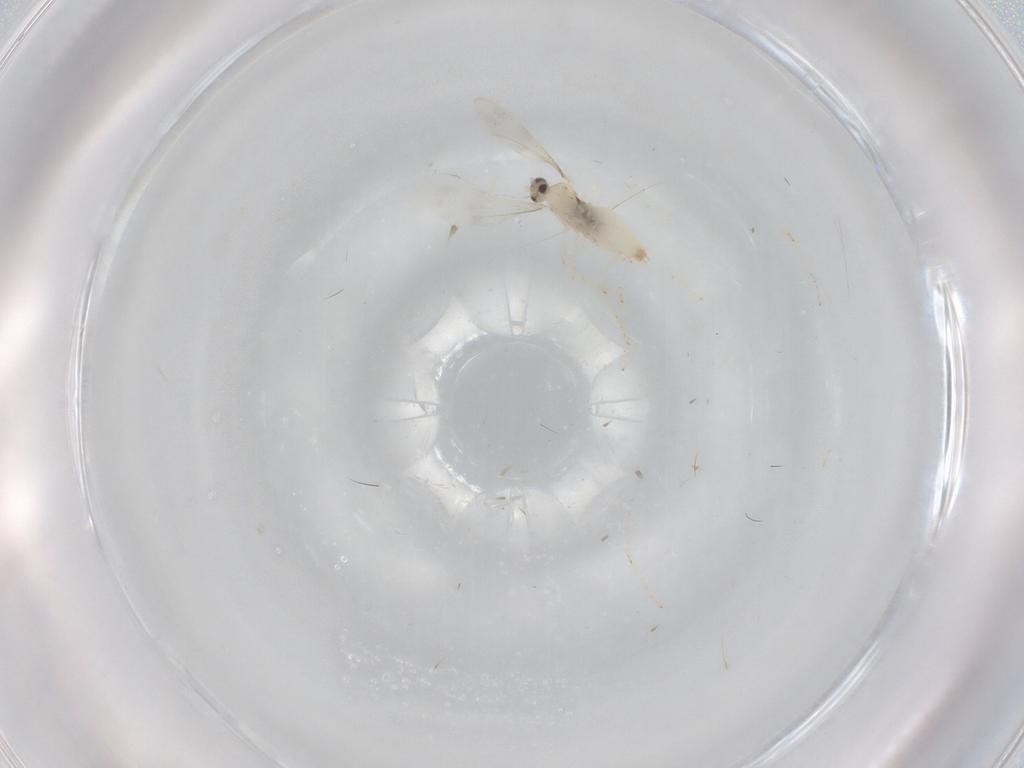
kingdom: Animalia
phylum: Arthropoda
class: Insecta
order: Diptera
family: Cecidomyiidae
